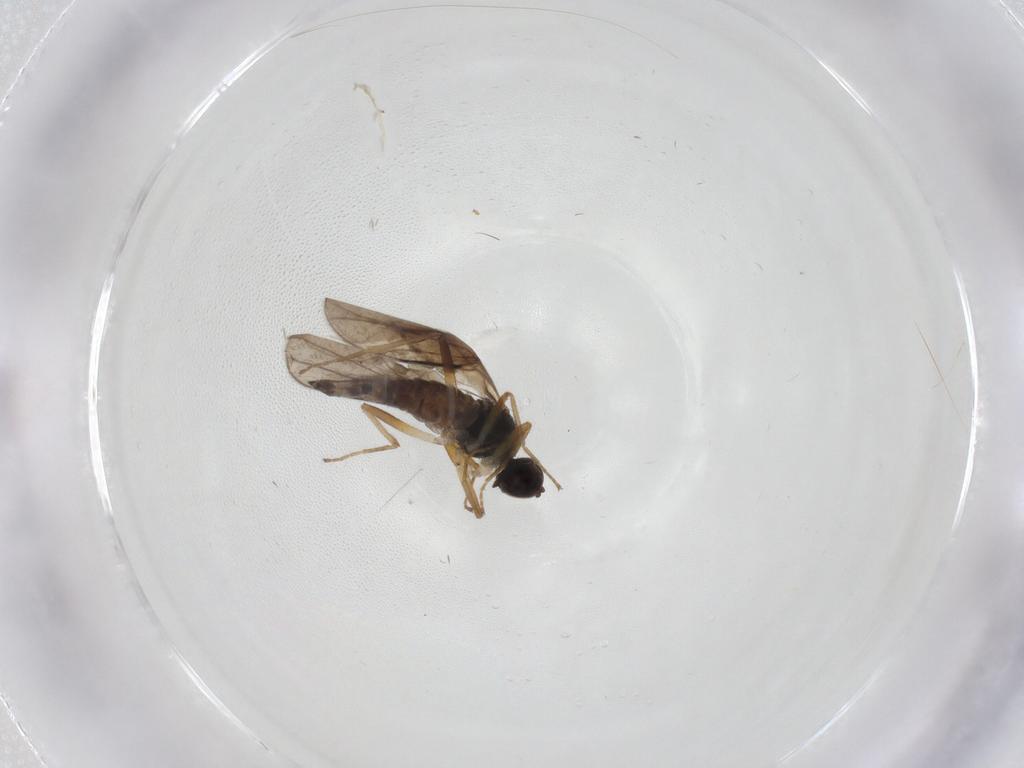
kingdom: Animalia
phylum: Arthropoda
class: Insecta
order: Diptera
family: Hybotidae
